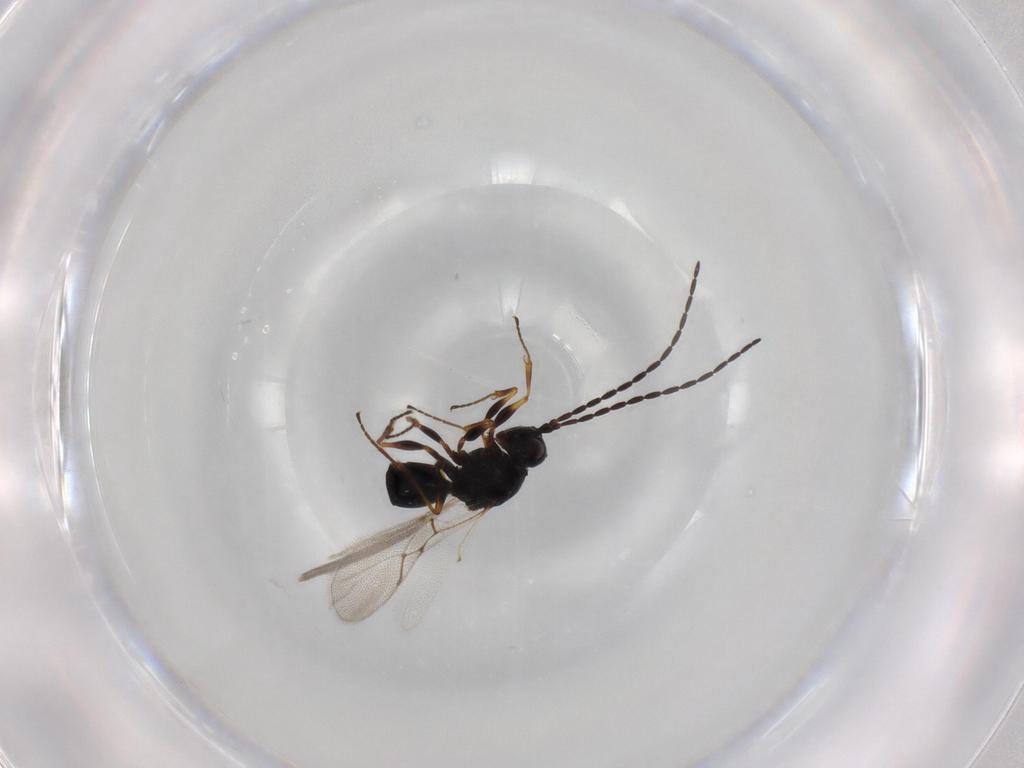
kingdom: Animalia
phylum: Arthropoda
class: Insecta
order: Hymenoptera
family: Figitidae
